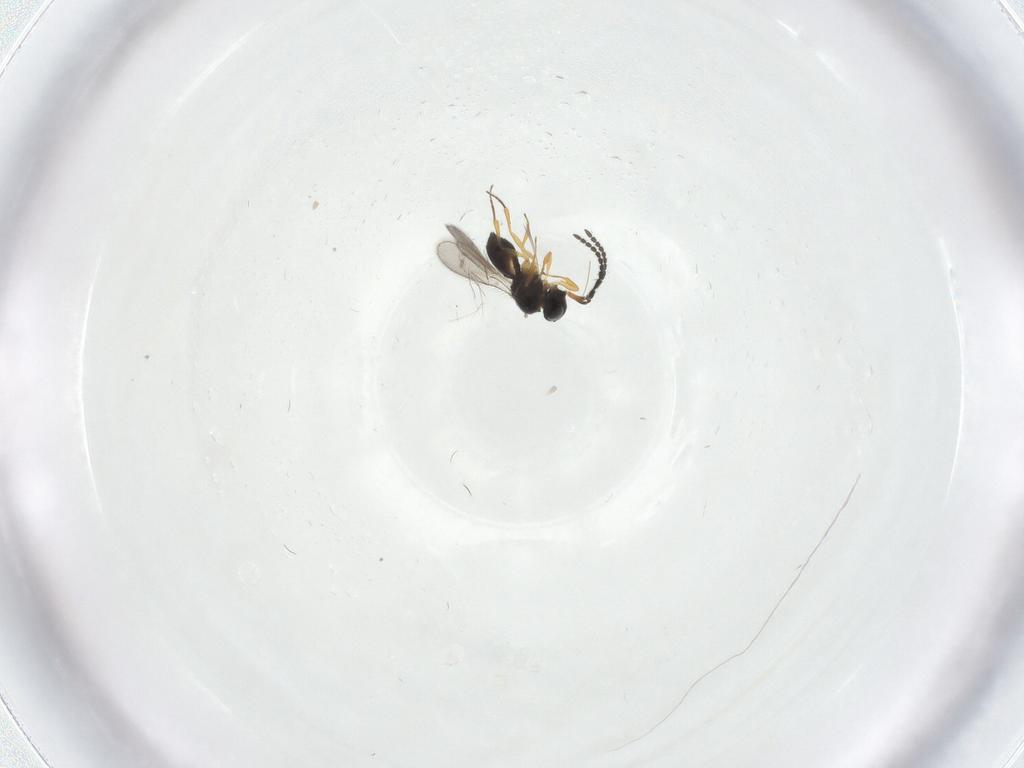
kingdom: Animalia
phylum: Arthropoda
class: Insecta
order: Hymenoptera
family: Scelionidae
